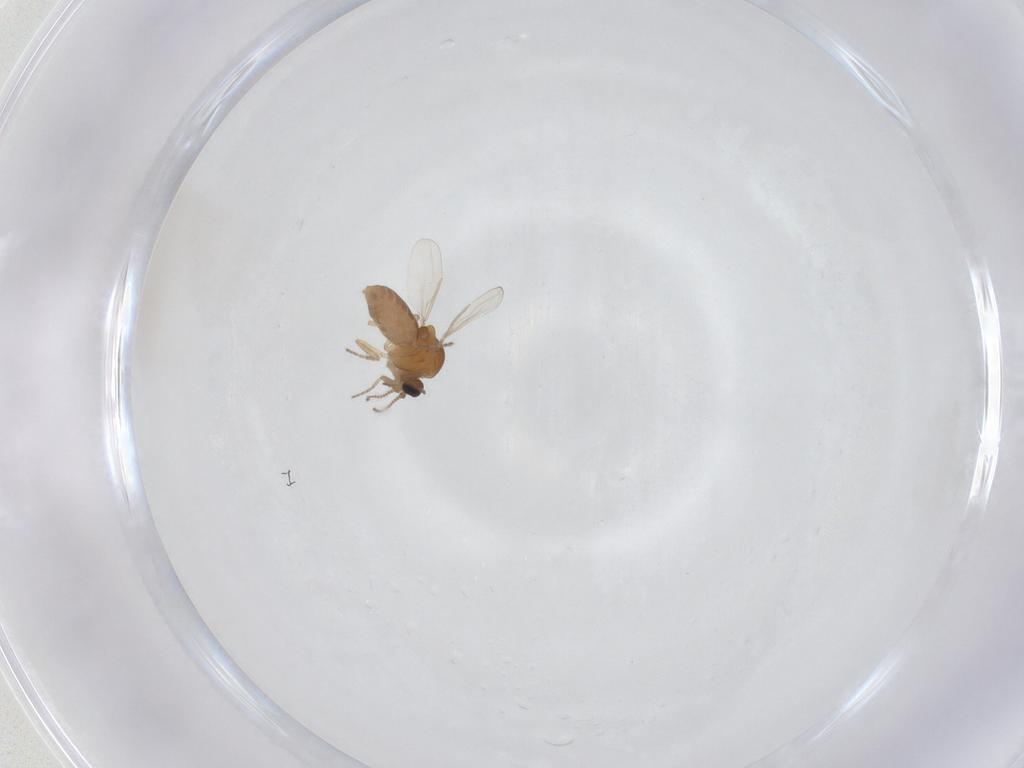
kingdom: Animalia
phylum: Arthropoda
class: Insecta
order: Diptera
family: Ceratopogonidae
